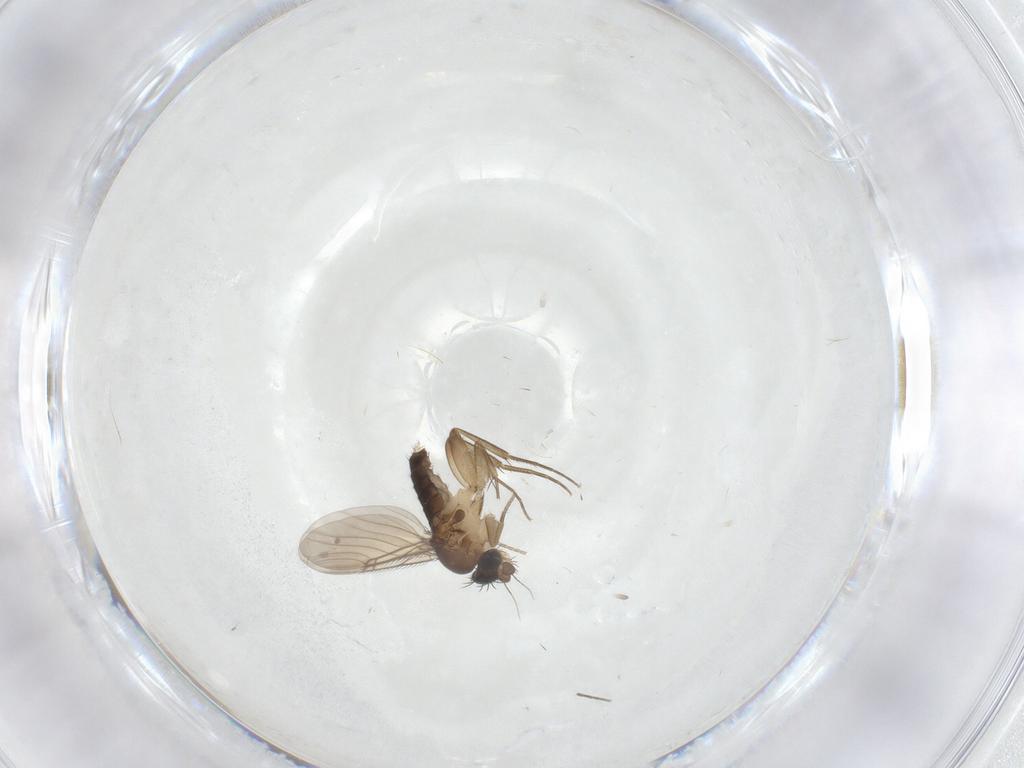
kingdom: Animalia
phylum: Arthropoda
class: Insecta
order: Diptera
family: Phoridae
